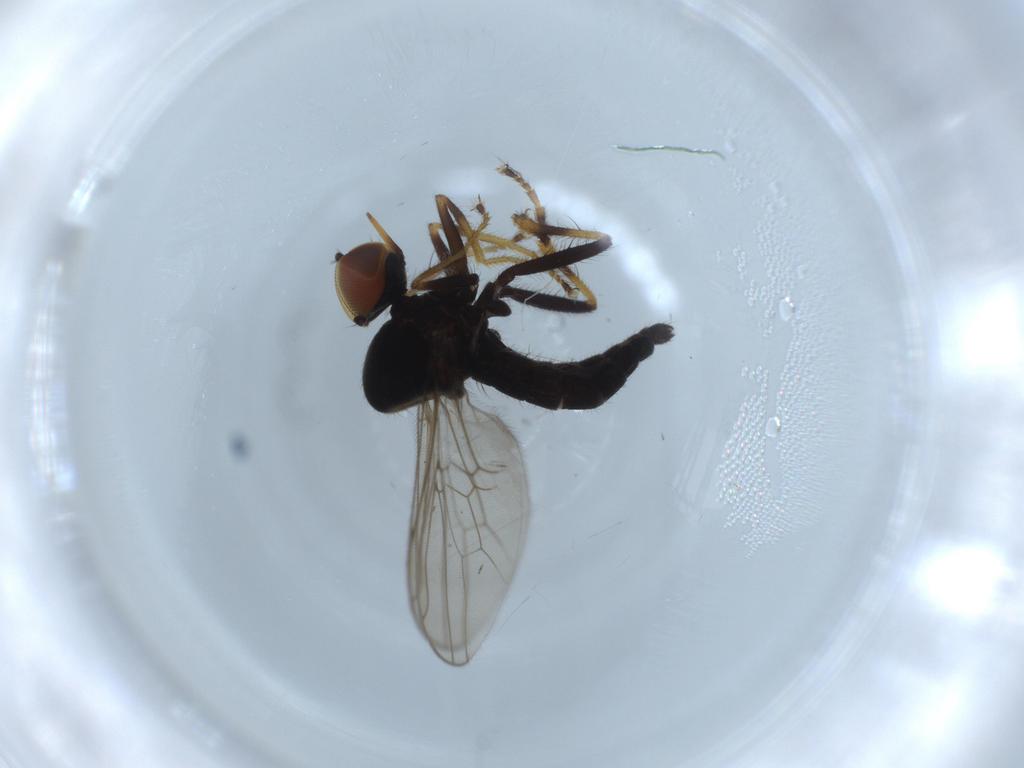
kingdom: Animalia
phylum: Arthropoda
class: Insecta
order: Diptera
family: Hybotidae
